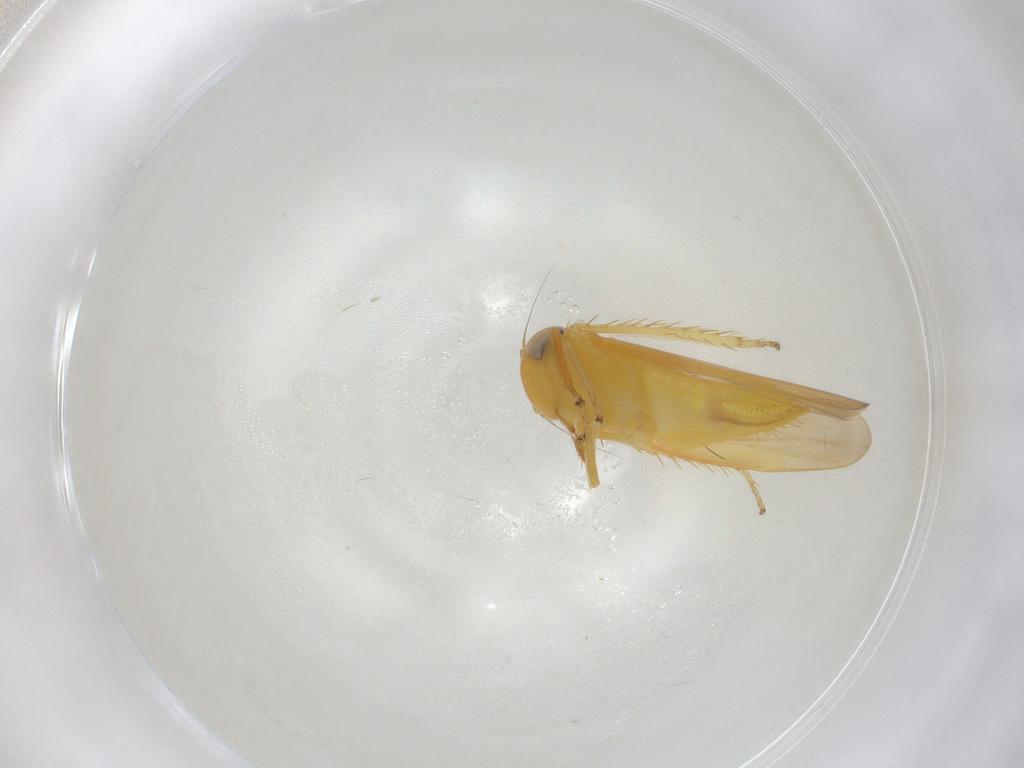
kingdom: Animalia
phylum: Arthropoda
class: Insecta
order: Hemiptera
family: Cicadellidae
